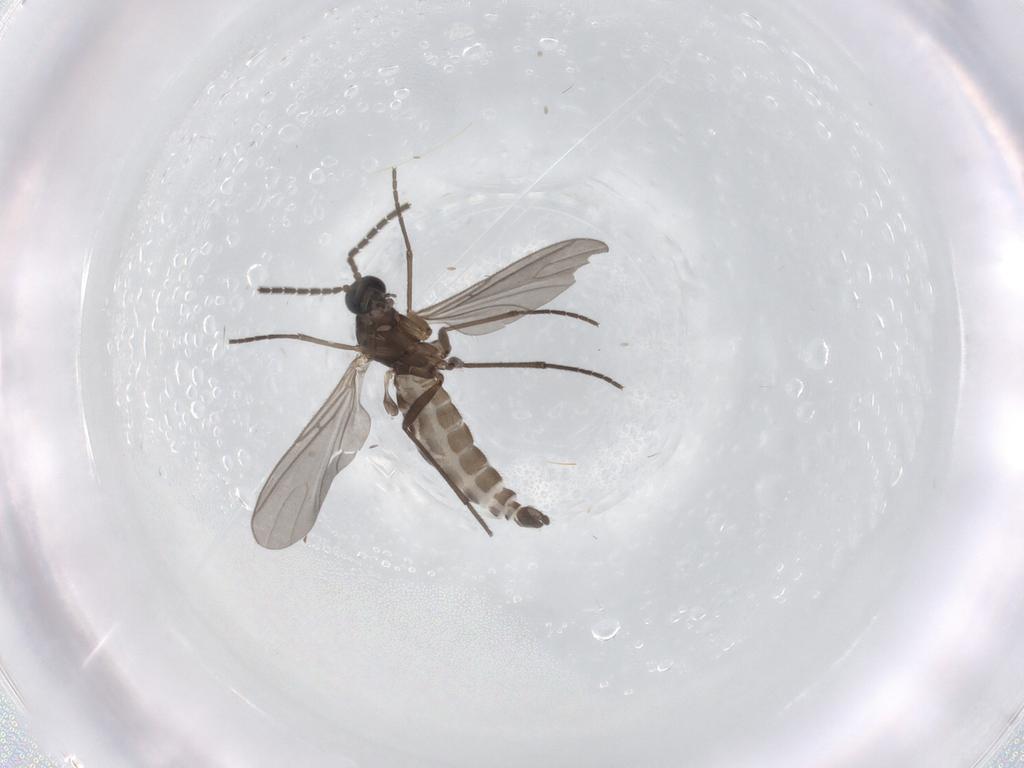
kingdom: Animalia
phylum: Arthropoda
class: Insecta
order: Diptera
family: Sciaridae
